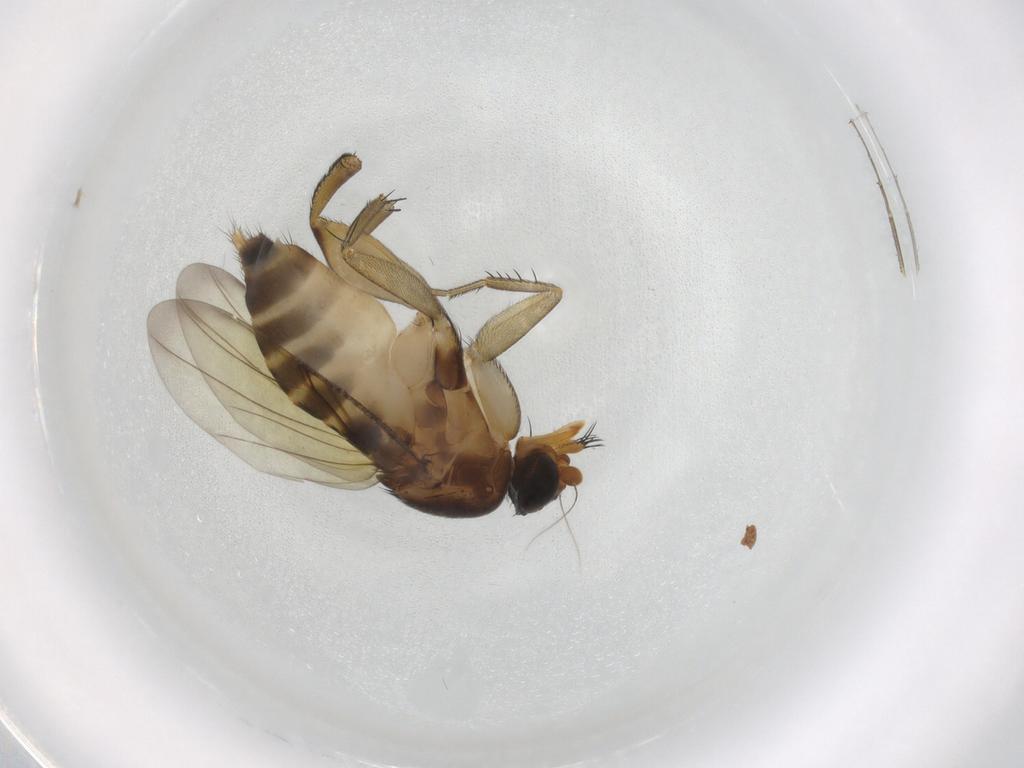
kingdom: Animalia
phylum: Arthropoda
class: Insecta
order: Diptera
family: Phoridae
